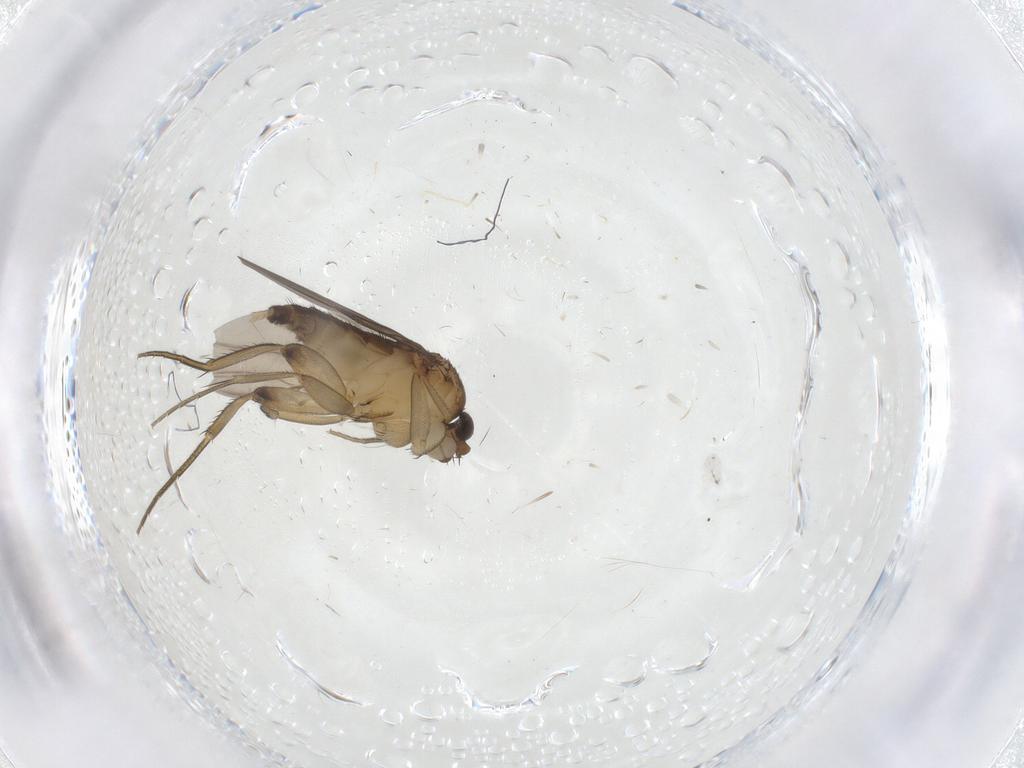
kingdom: Animalia
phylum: Arthropoda
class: Insecta
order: Diptera
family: Phoridae
